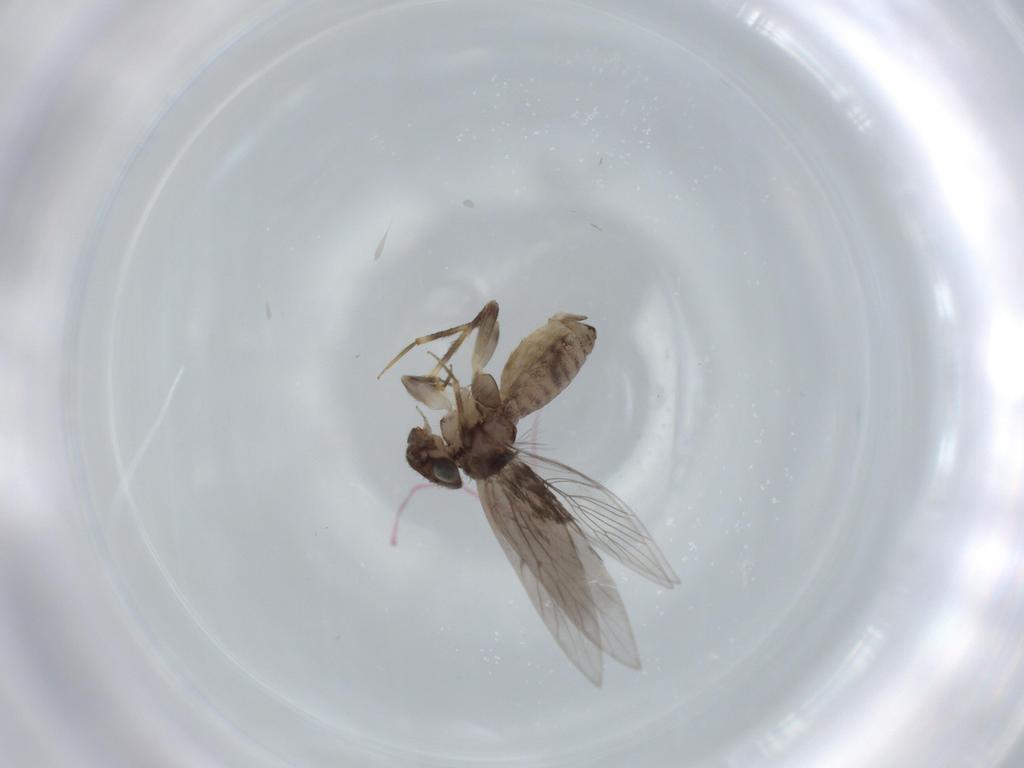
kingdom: Animalia
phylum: Arthropoda
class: Insecta
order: Psocodea
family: Lepidopsocidae
